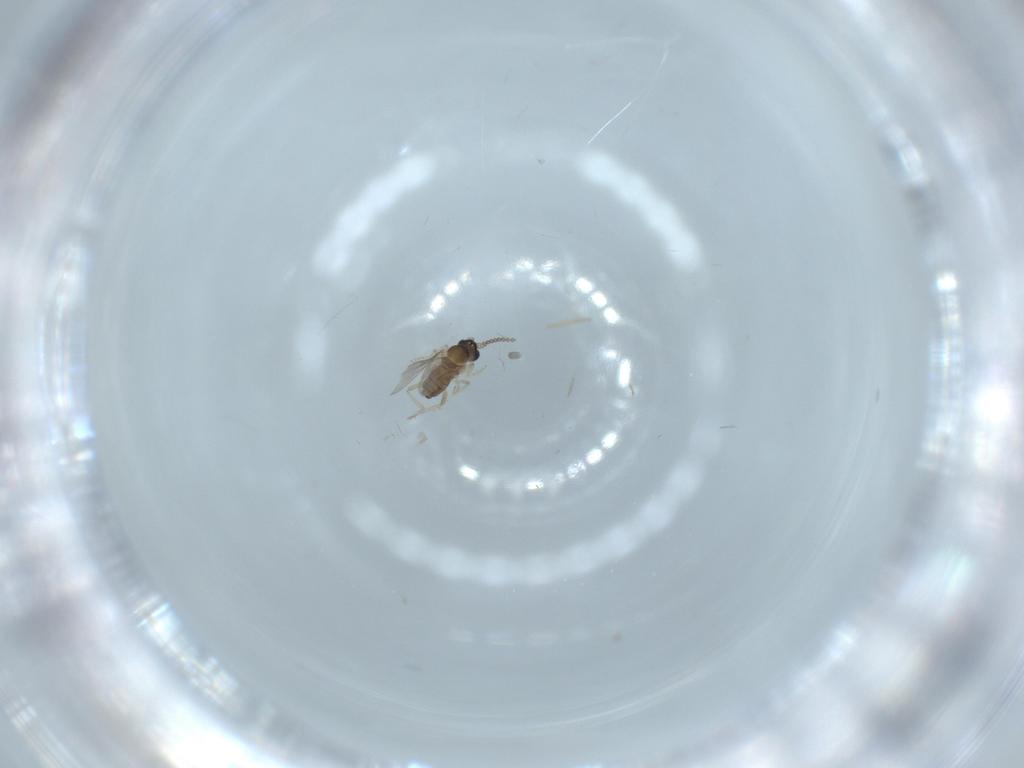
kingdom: Animalia
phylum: Arthropoda
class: Insecta
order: Diptera
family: Cecidomyiidae
